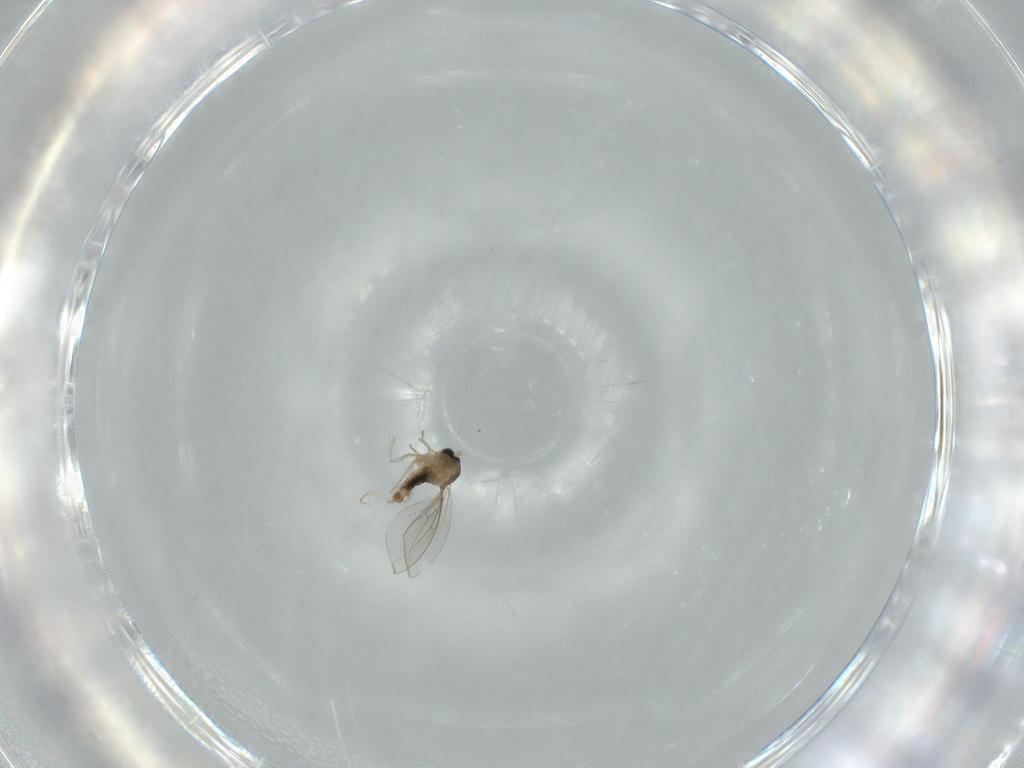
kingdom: Animalia
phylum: Arthropoda
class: Insecta
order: Diptera
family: Cecidomyiidae
